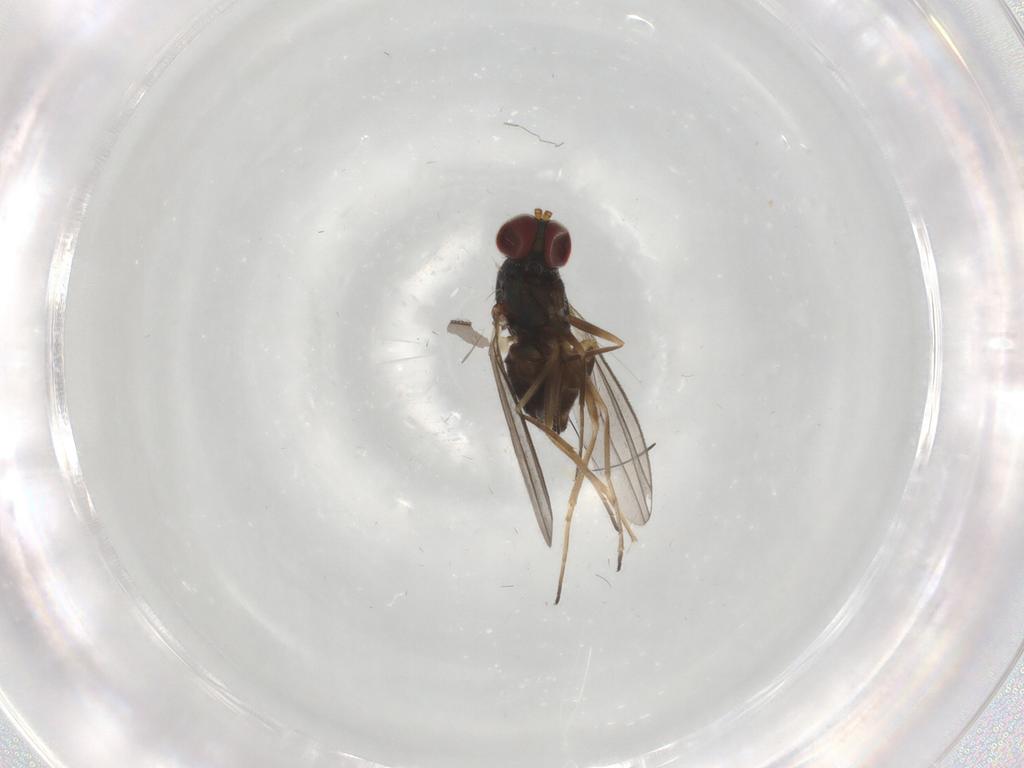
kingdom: Animalia
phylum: Arthropoda
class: Insecta
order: Diptera
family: Dolichopodidae
